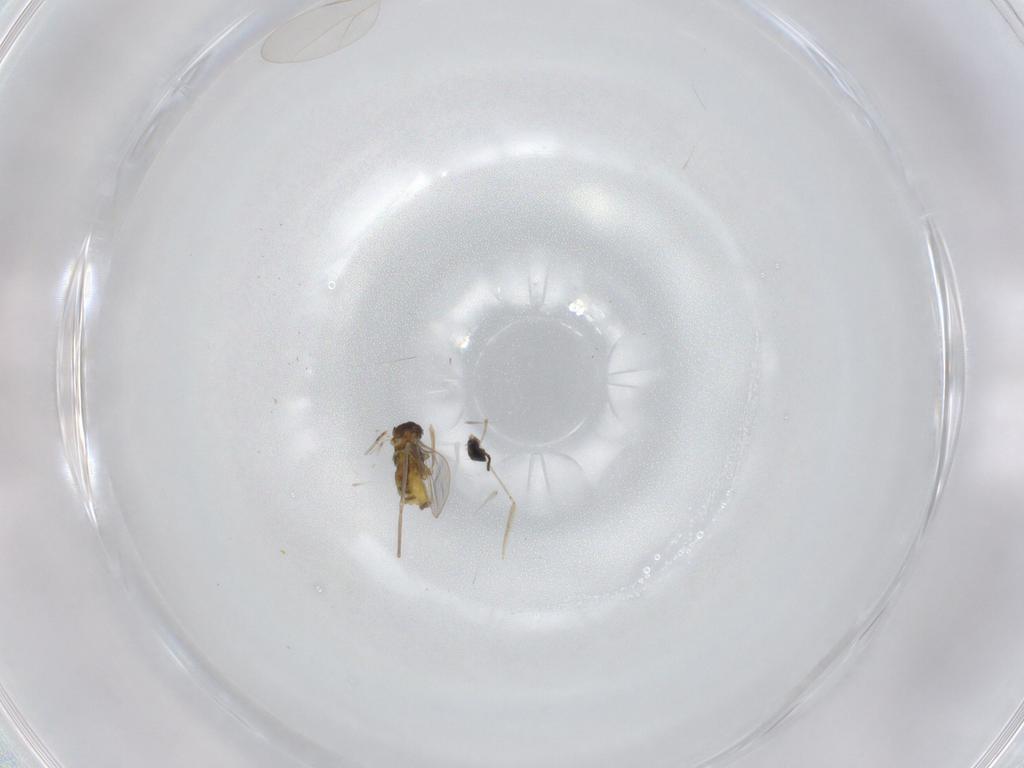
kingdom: Animalia
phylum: Arthropoda
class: Insecta
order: Diptera
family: Cecidomyiidae
